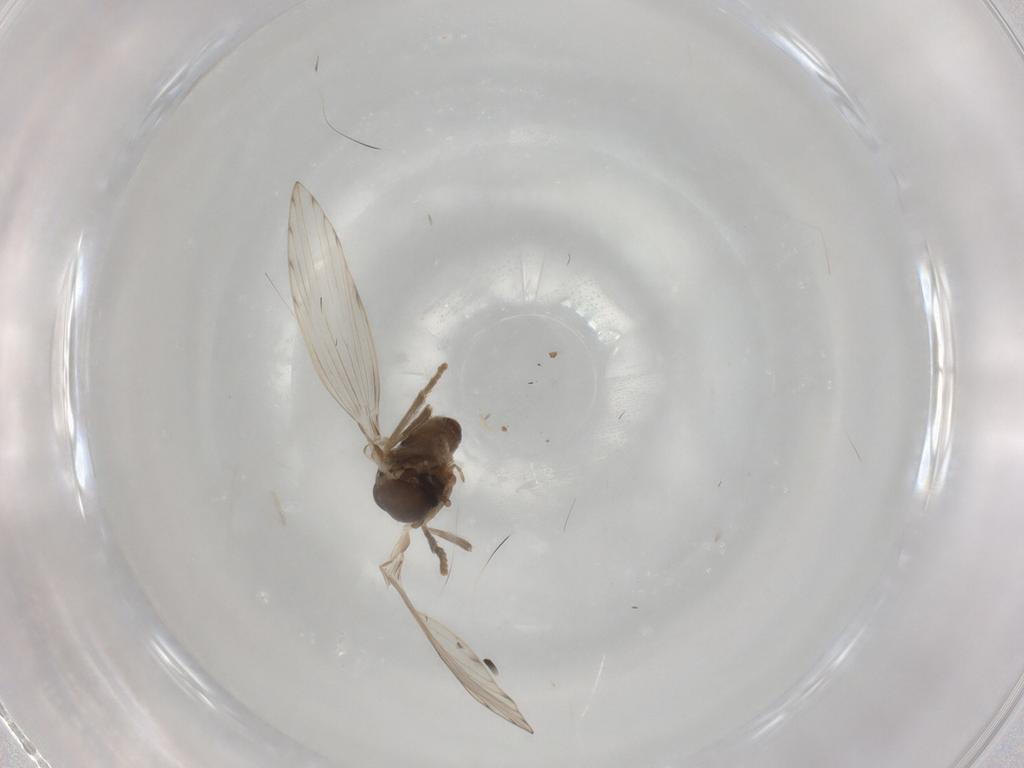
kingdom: Animalia
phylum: Arthropoda
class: Insecta
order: Diptera
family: Psychodidae
